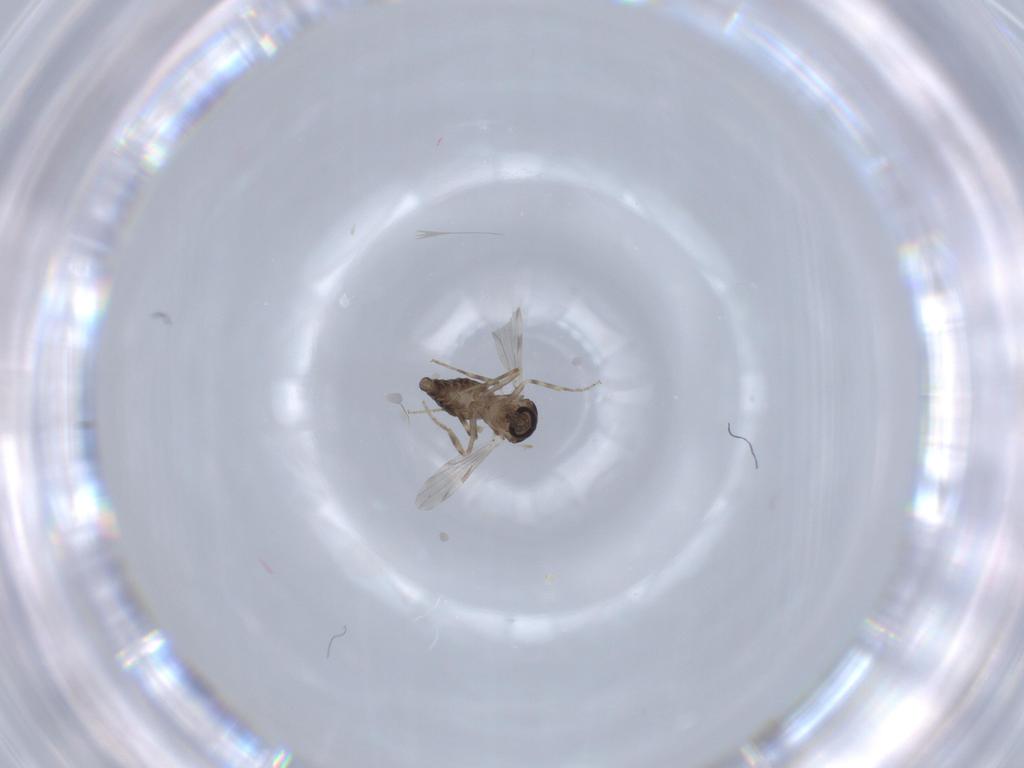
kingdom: Animalia
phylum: Arthropoda
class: Insecta
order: Diptera
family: Ceratopogonidae
